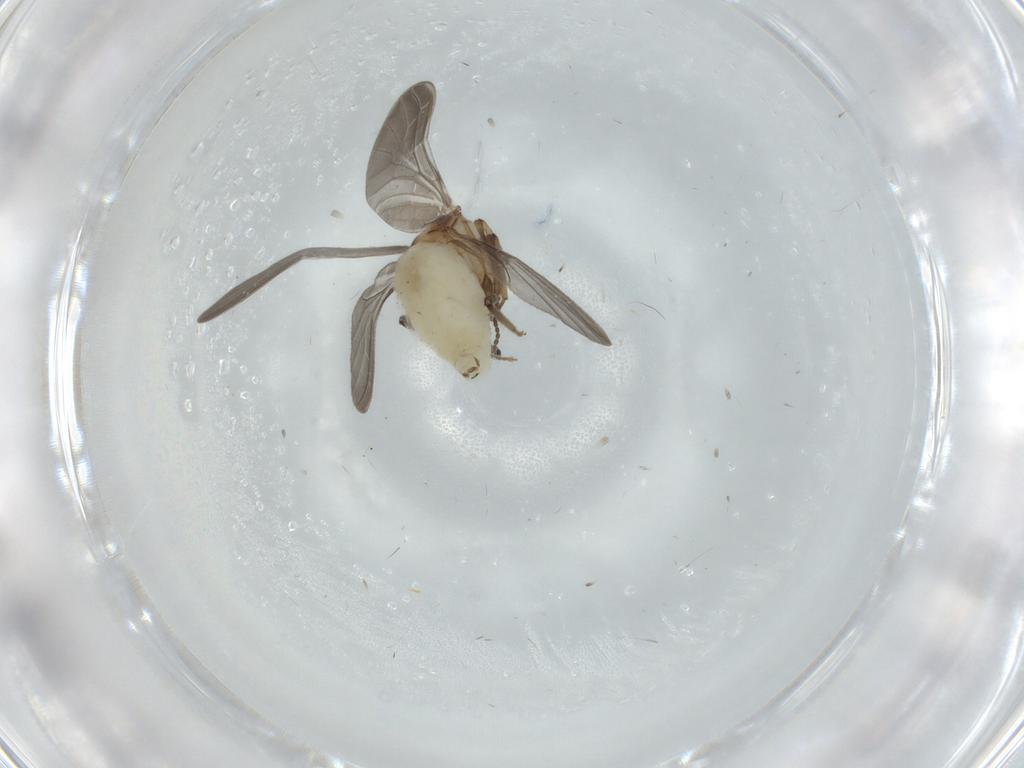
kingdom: Animalia
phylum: Arthropoda
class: Insecta
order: Neuroptera
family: Coniopterygidae
